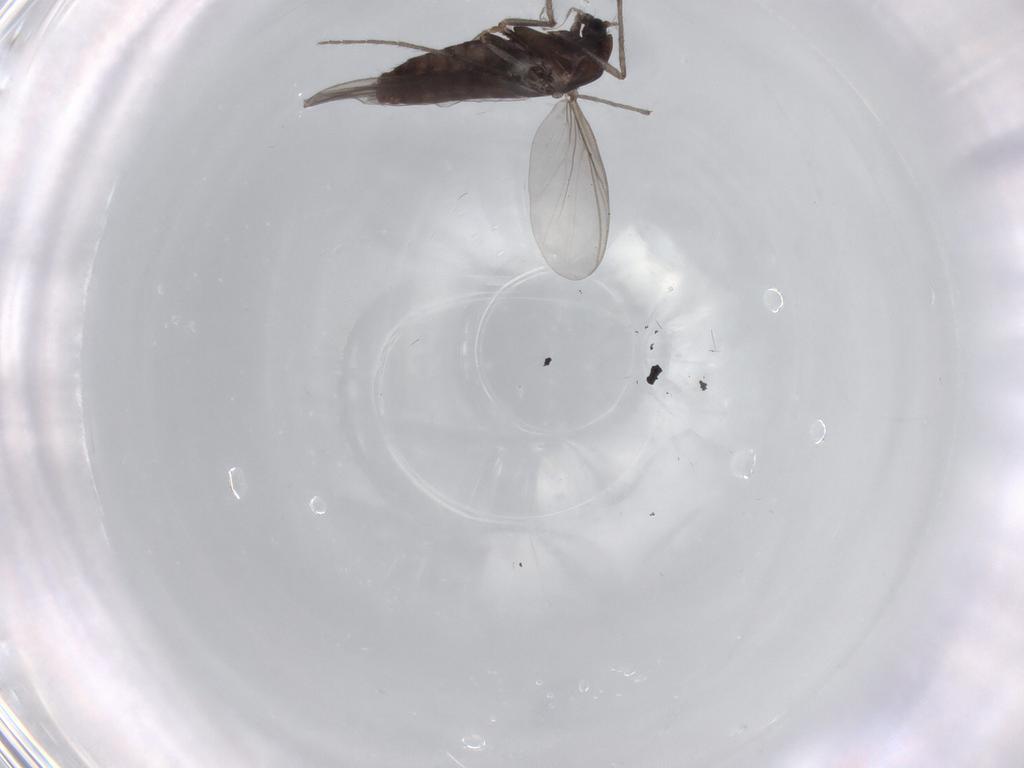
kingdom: Animalia
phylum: Arthropoda
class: Insecta
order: Diptera
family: Chironomidae
